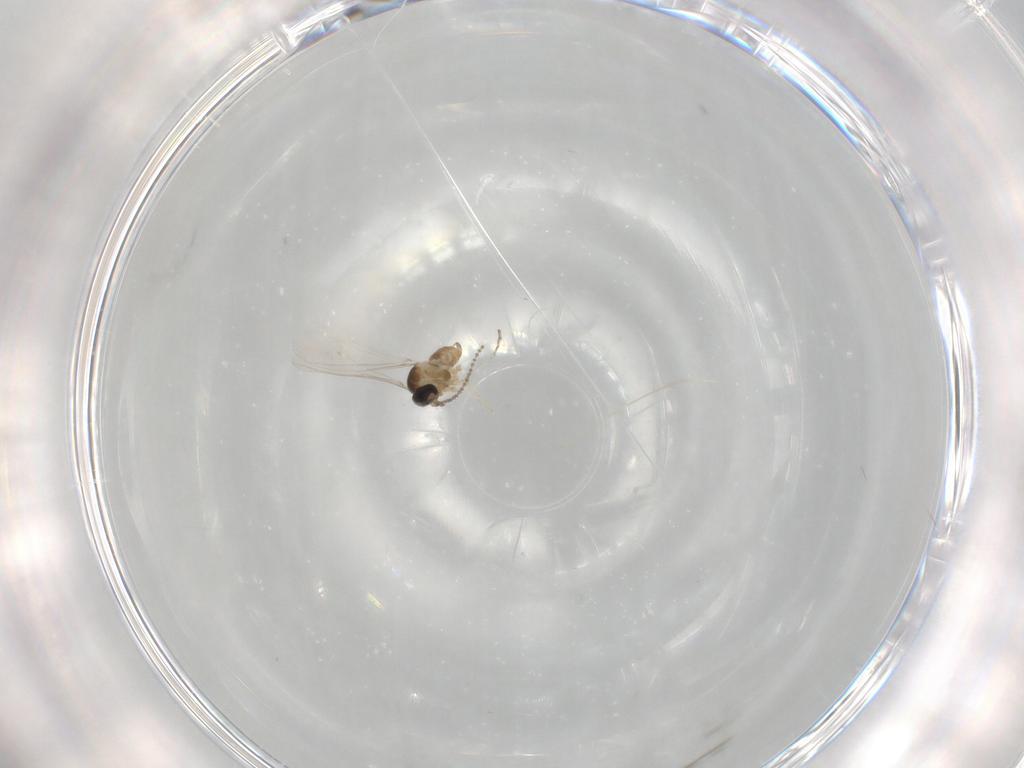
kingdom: Animalia
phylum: Arthropoda
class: Insecta
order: Diptera
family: Cecidomyiidae
